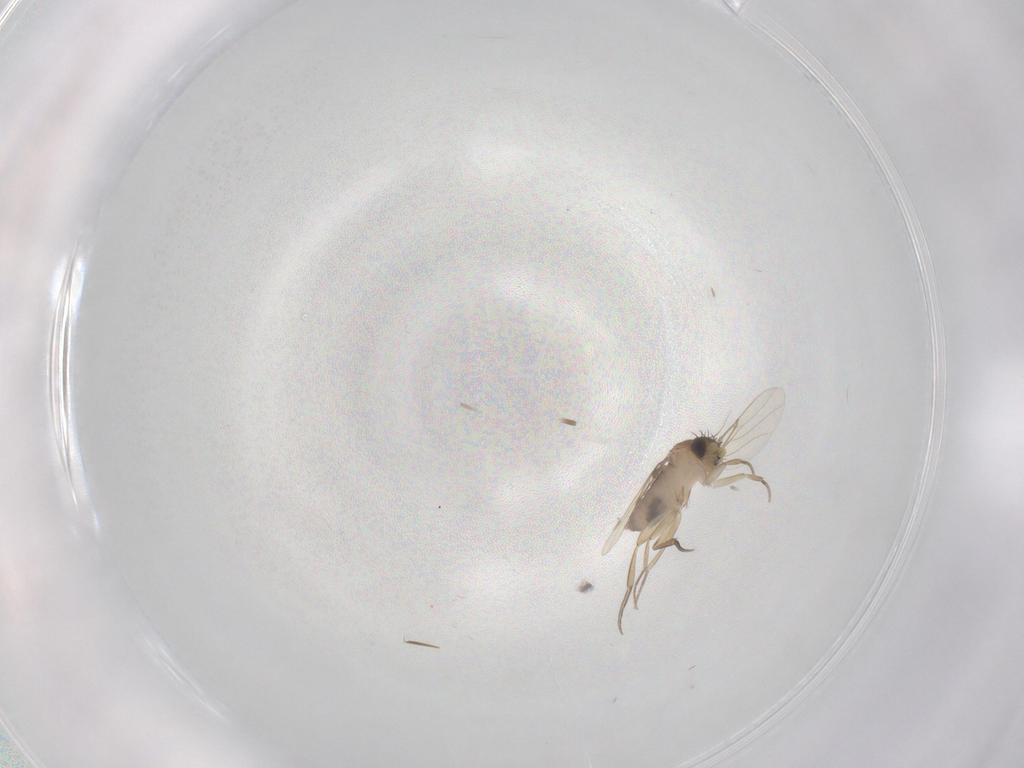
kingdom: Animalia
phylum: Arthropoda
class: Insecta
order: Diptera
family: Phoridae
